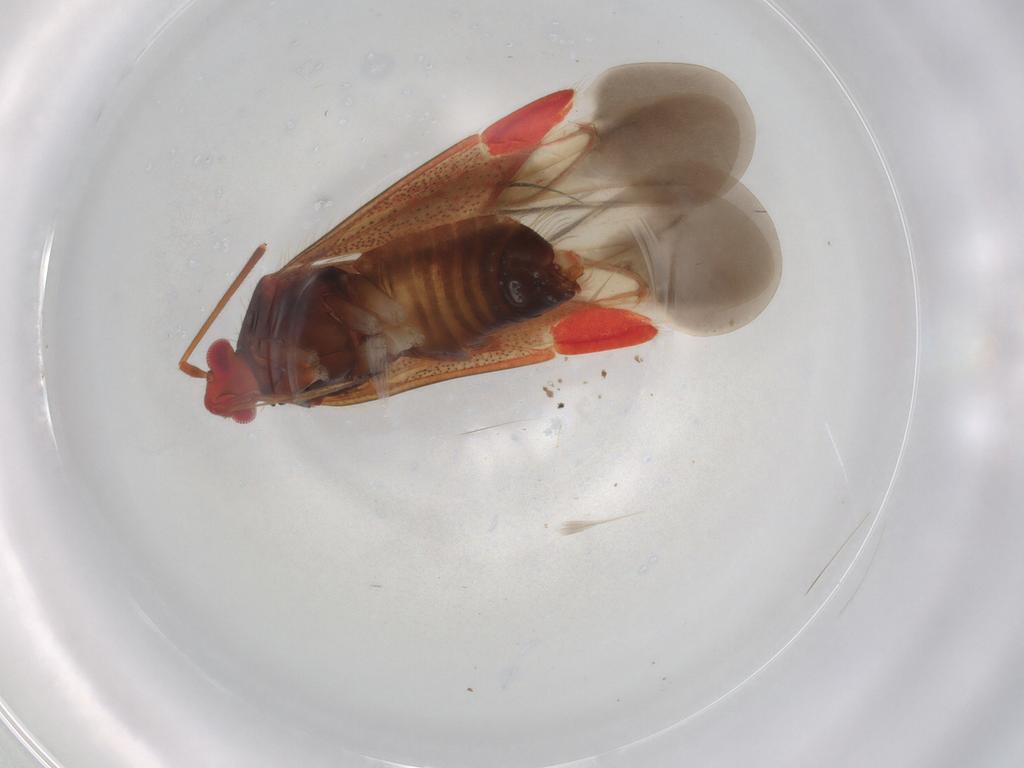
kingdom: Animalia
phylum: Arthropoda
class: Insecta
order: Hemiptera
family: Miridae
